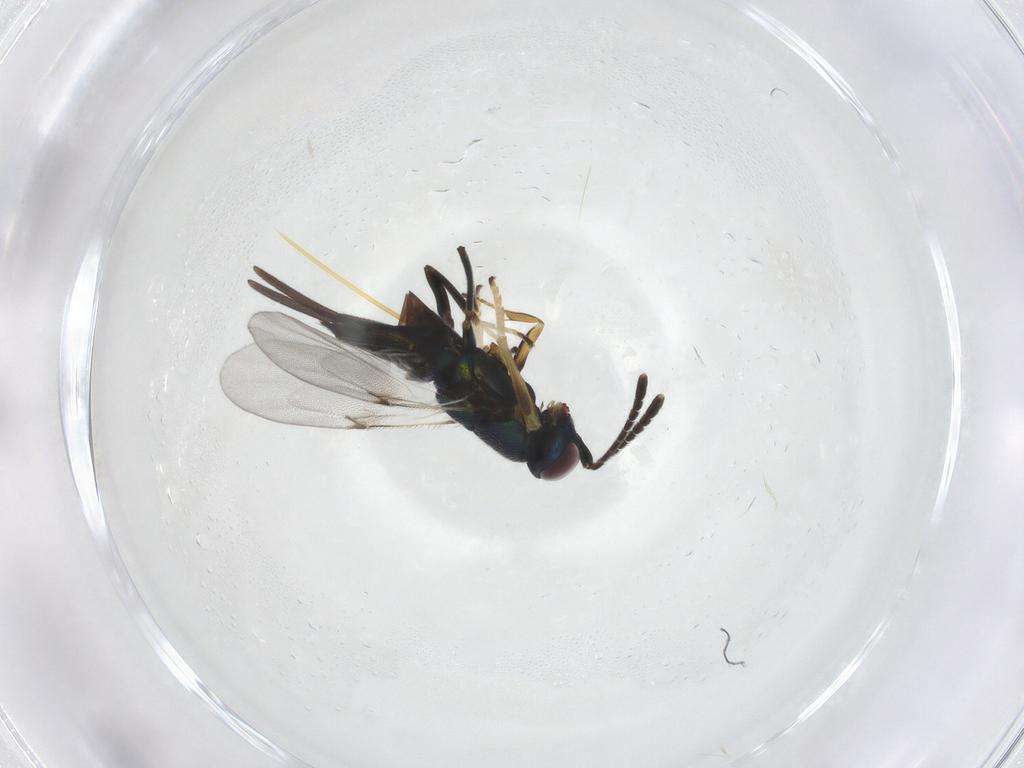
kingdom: Animalia
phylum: Arthropoda
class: Insecta
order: Hymenoptera
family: Encyrtidae
